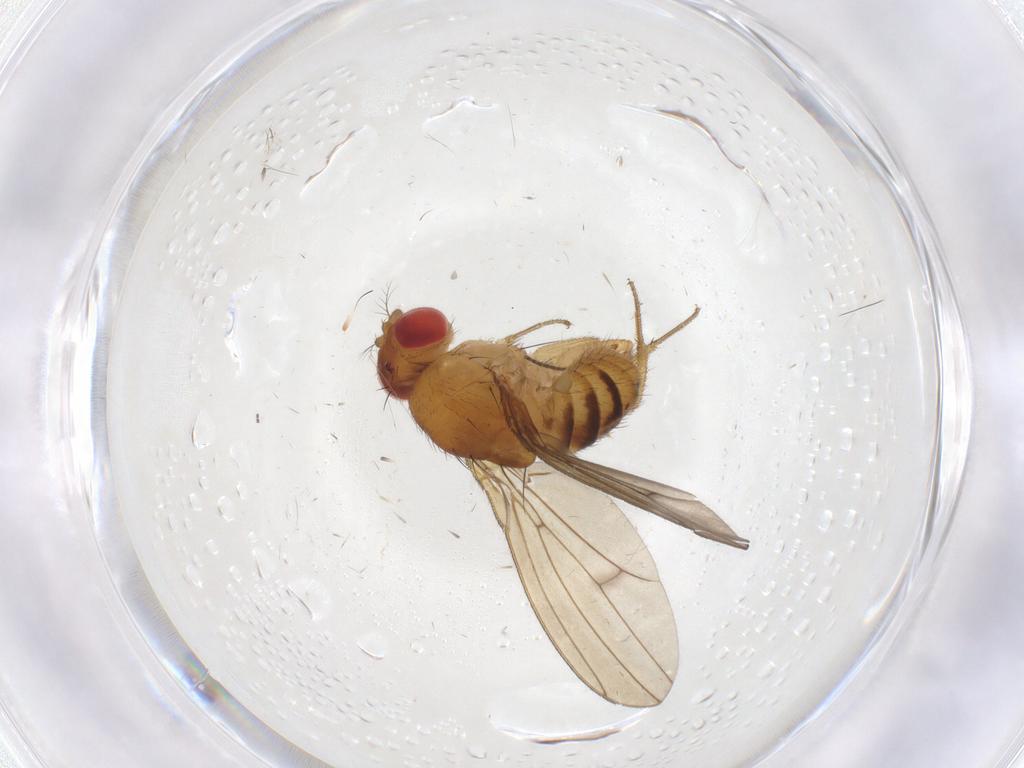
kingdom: Animalia
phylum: Arthropoda
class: Insecta
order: Diptera
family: Drosophilidae
